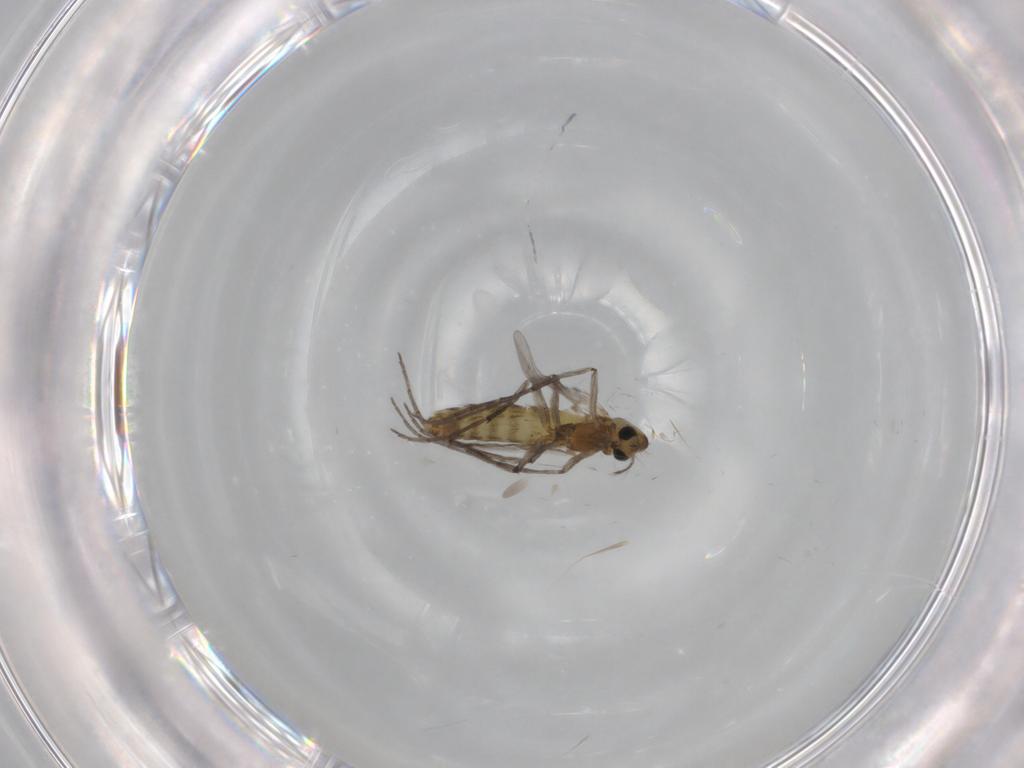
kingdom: Animalia
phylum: Arthropoda
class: Insecta
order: Diptera
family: Chironomidae
